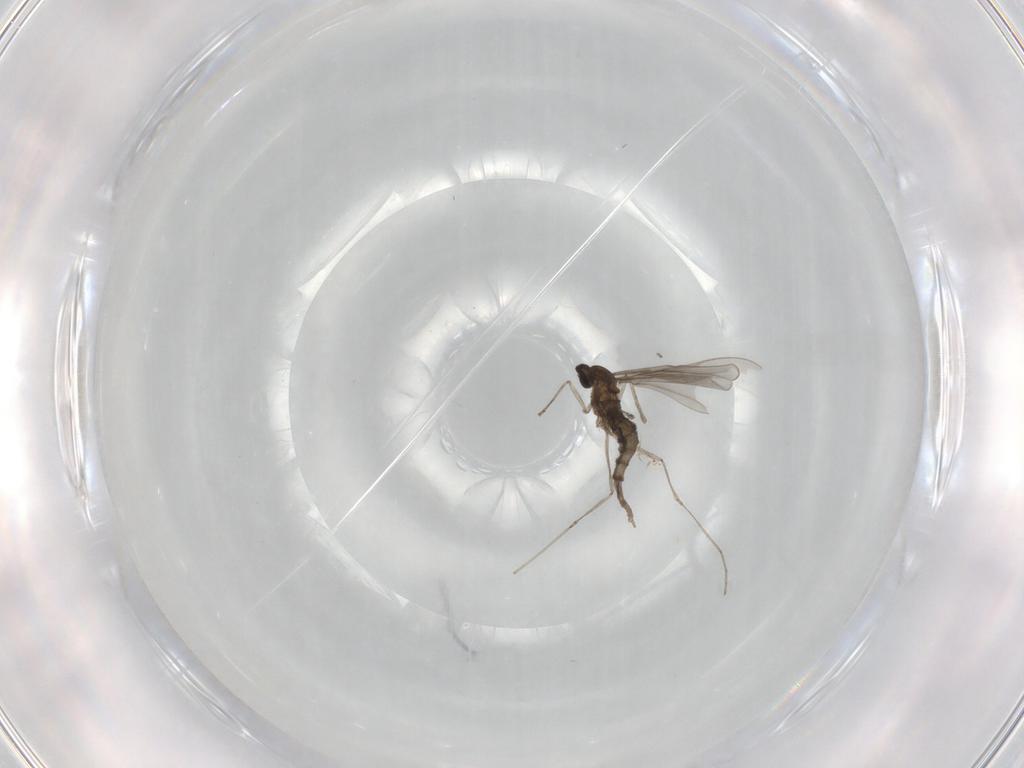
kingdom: Animalia
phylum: Arthropoda
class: Insecta
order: Diptera
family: Cecidomyiidae
